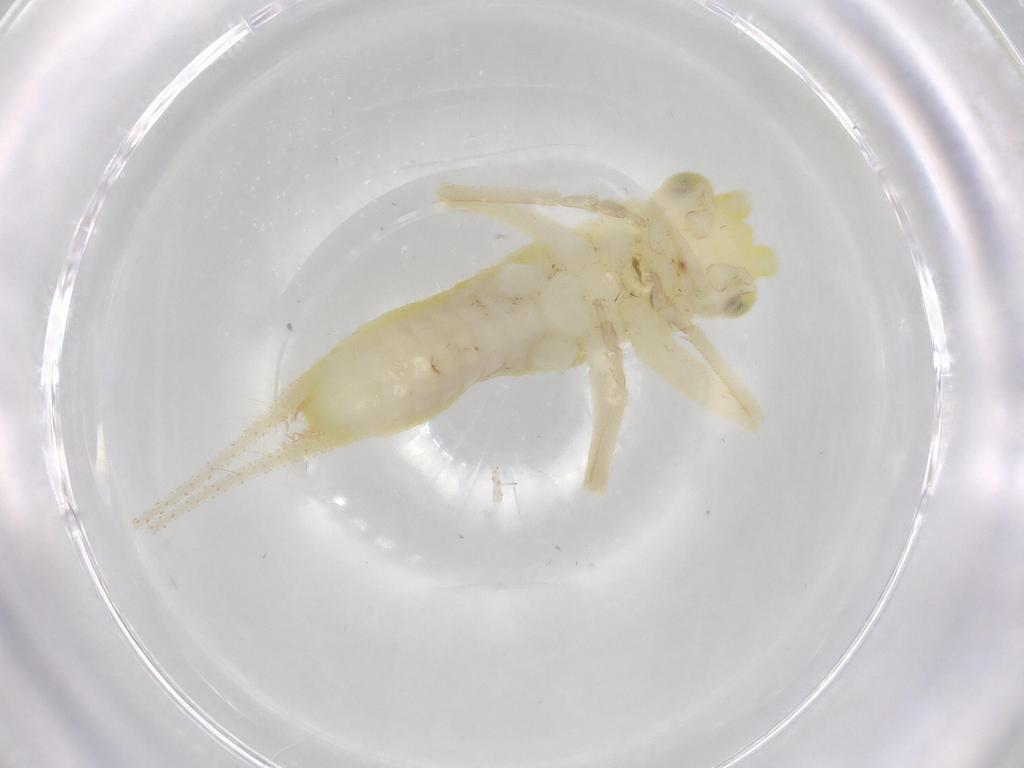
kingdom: Animalia
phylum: Arthropoda
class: Insecta
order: Orthoptera
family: Trigonidiidae
